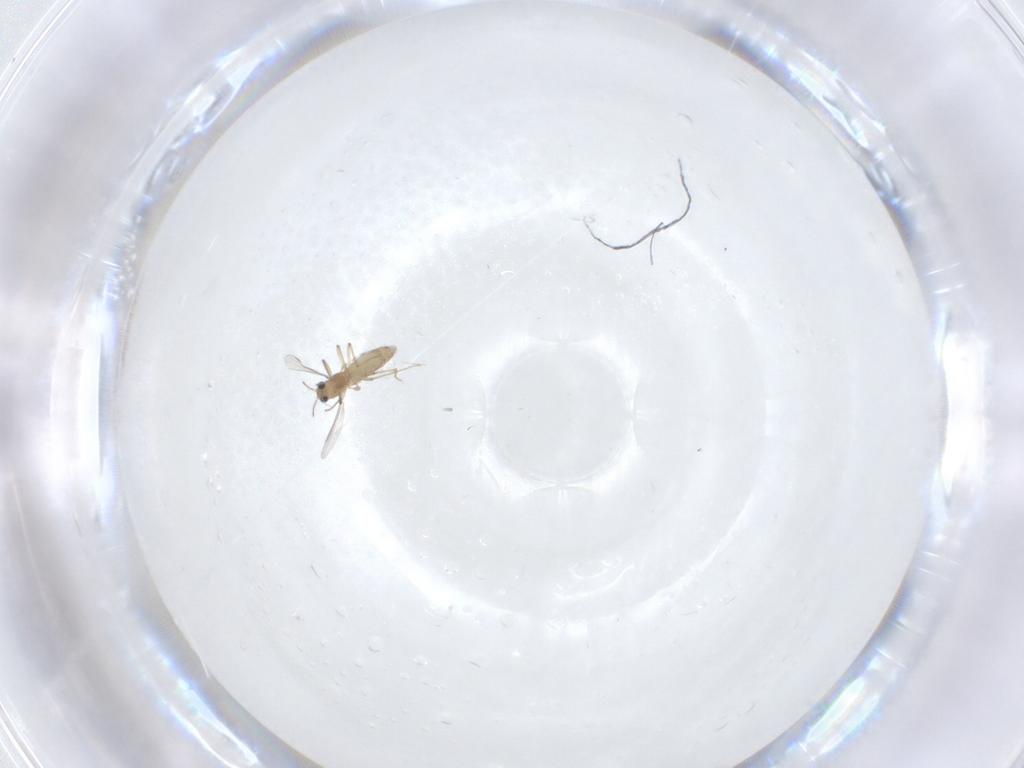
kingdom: Animalia
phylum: Arthropoda
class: Insecta
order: Diptera
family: Chironomidae
